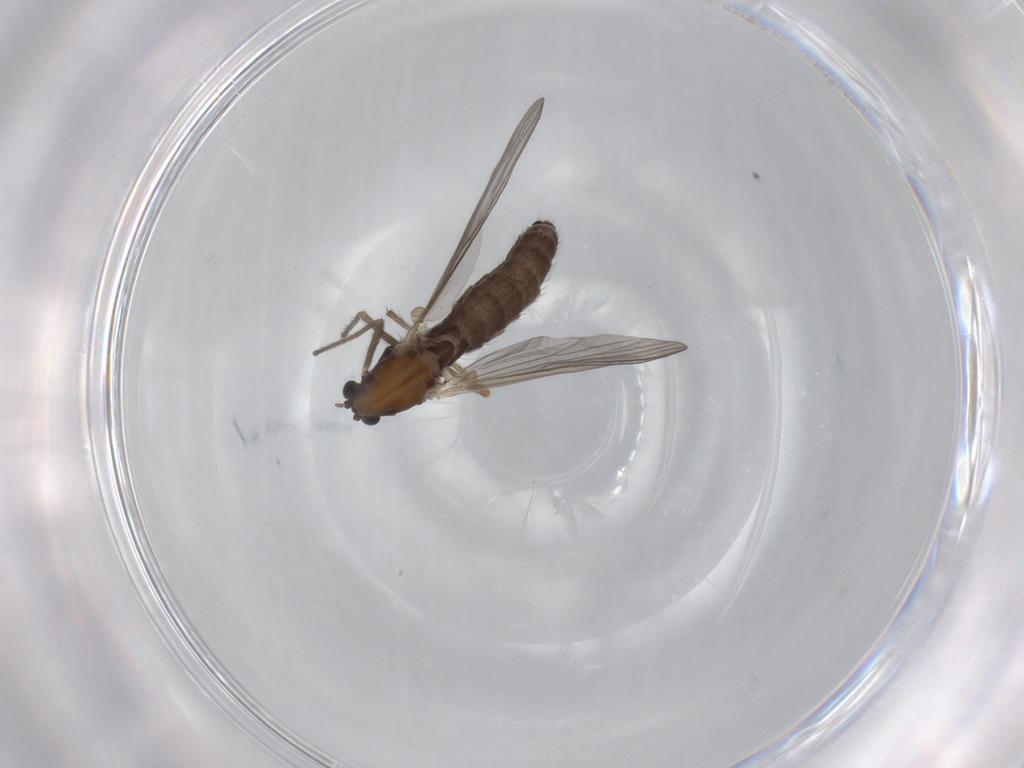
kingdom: Animalia
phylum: Arthropoda
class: Insecta
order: Diptera
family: Chironomidae
